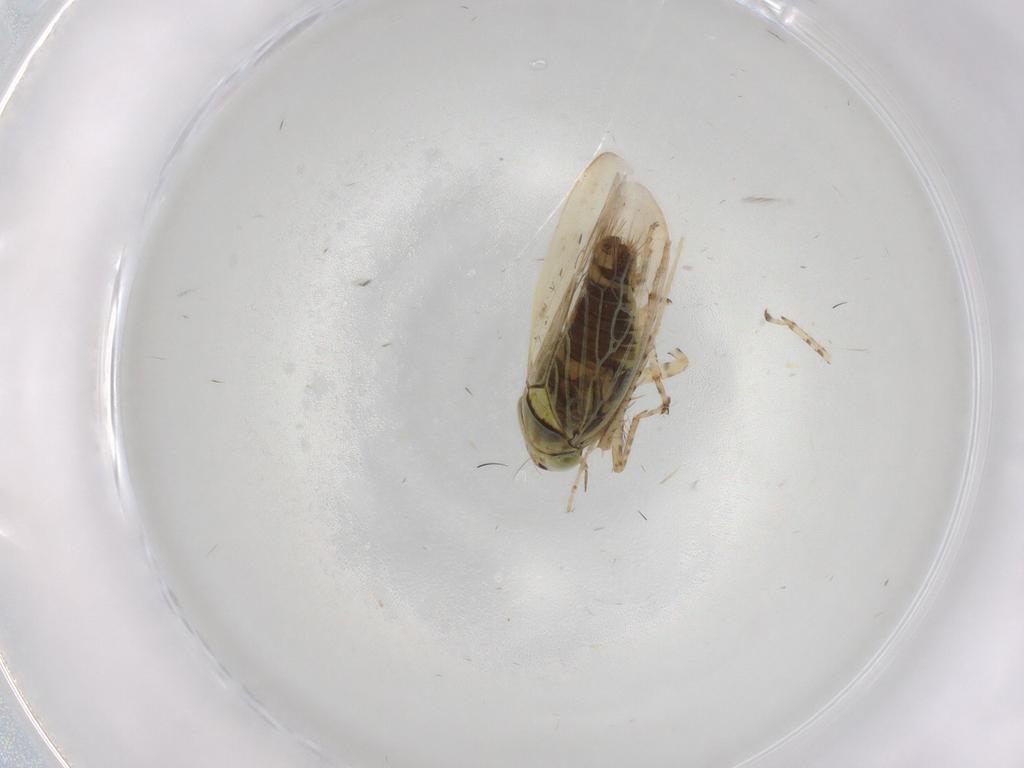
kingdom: Animalia
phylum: Arthropoda
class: Insecta
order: Hemiptera
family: Cicadellidae
